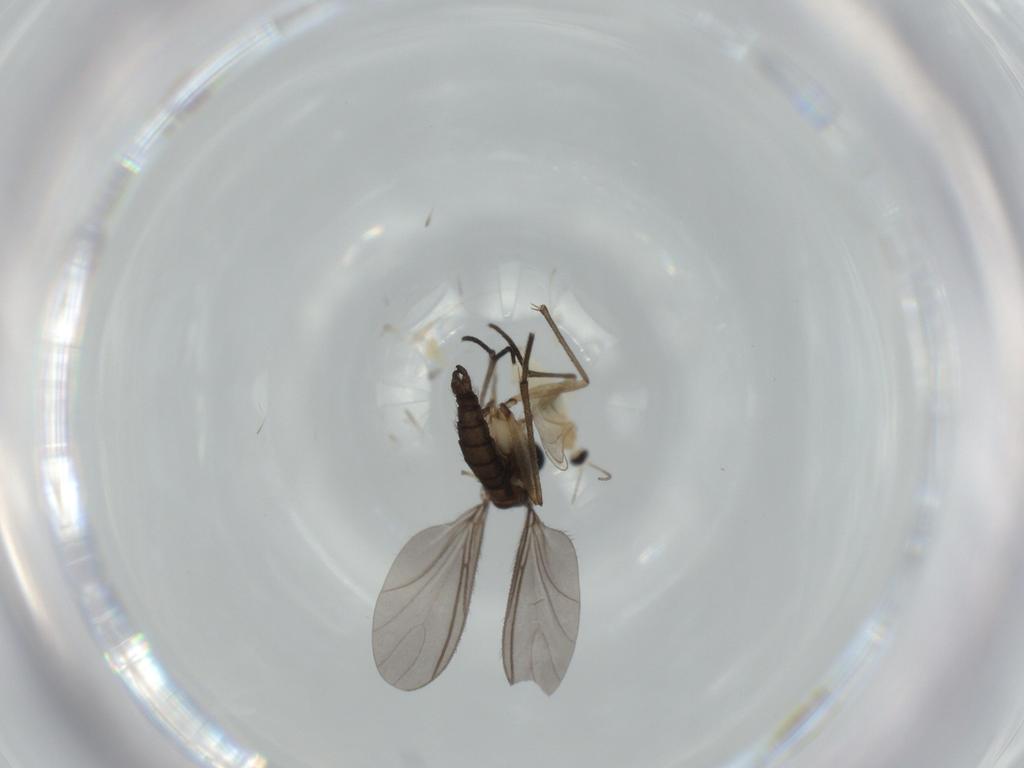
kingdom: Animalia
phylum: Arthropoda
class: Insecta
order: Diptera
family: Cecidomyiidae
